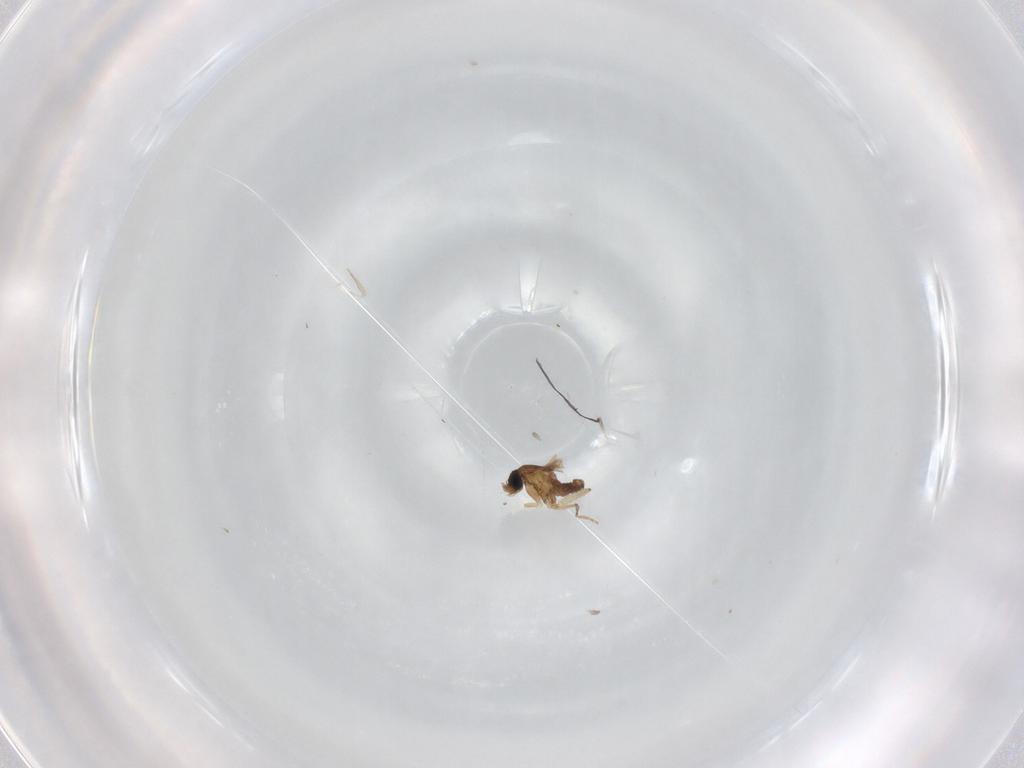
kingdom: Animalia
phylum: Arthropoda
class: Insecta
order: Diptera
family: Phoridae
